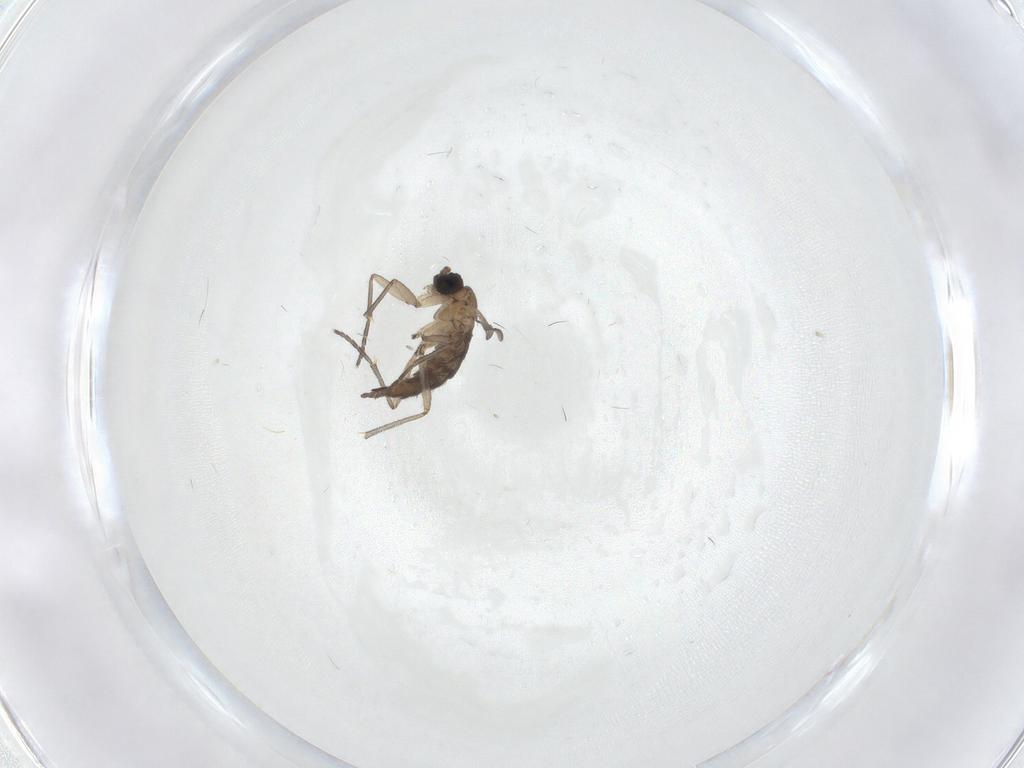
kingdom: Animalia
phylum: Arthropoda
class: Insecta
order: Diptera
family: Sciaridae
